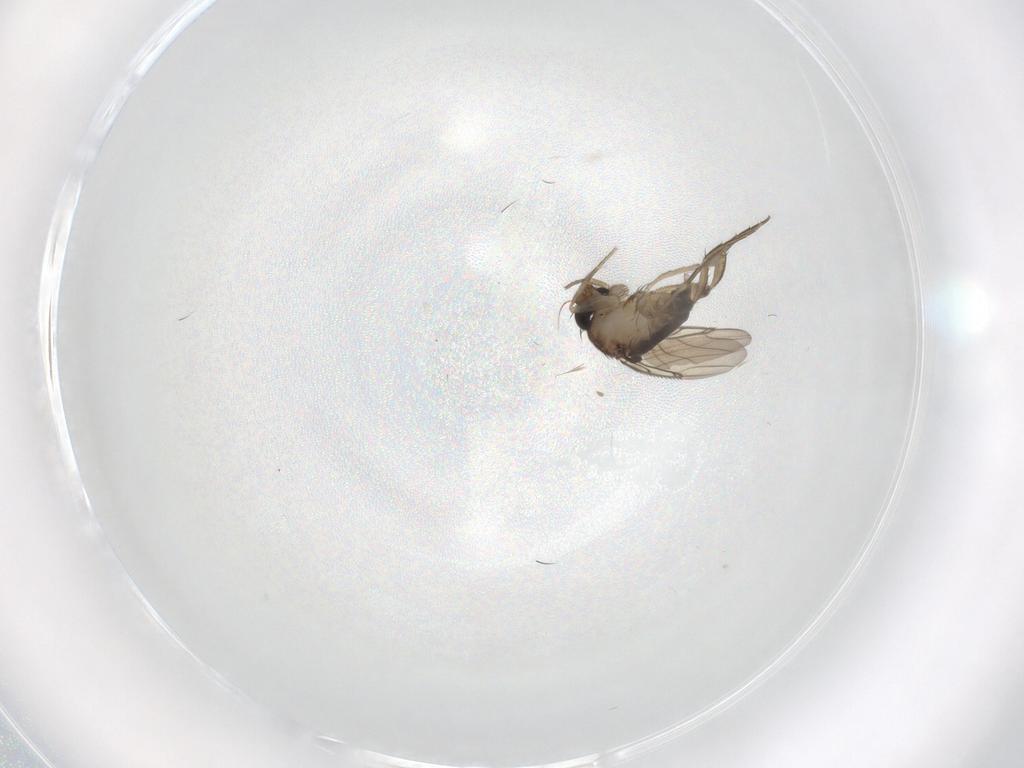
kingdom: Animalia
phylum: Arthropoda
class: Insecta
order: Diptera
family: Phoridae
